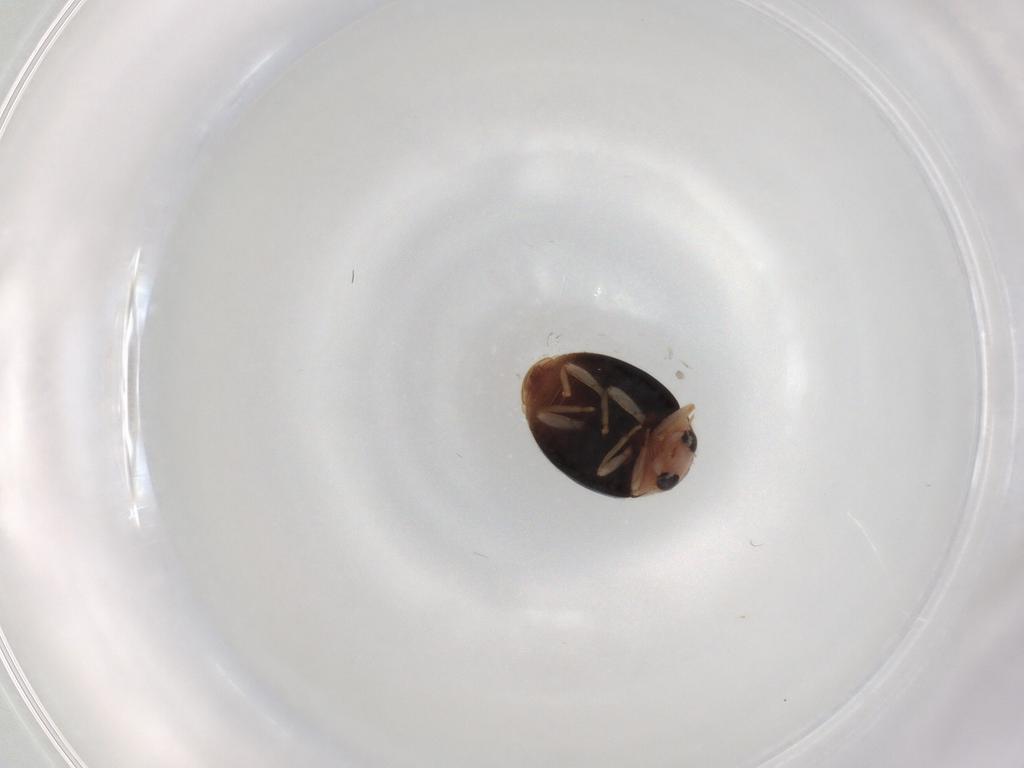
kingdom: Animalia
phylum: Arthropoda
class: Insecta
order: Coleoptera
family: Coccinellidae
